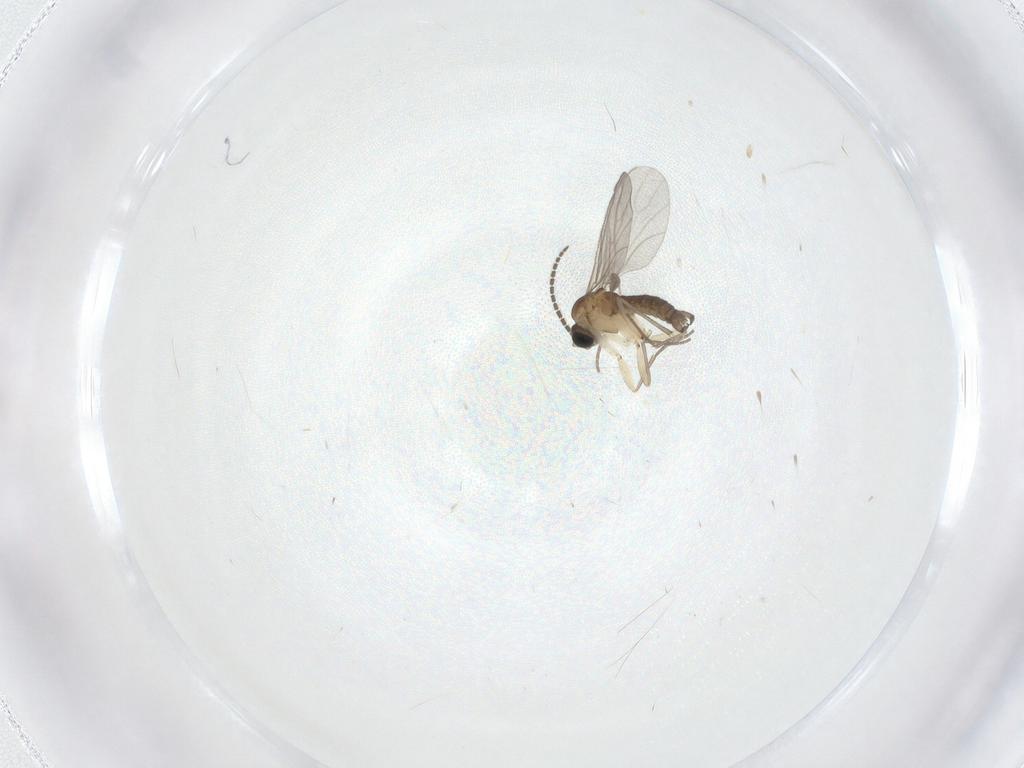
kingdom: Animalia
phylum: Arthropoda
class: Insecta
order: Diptera
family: Sciaridae
